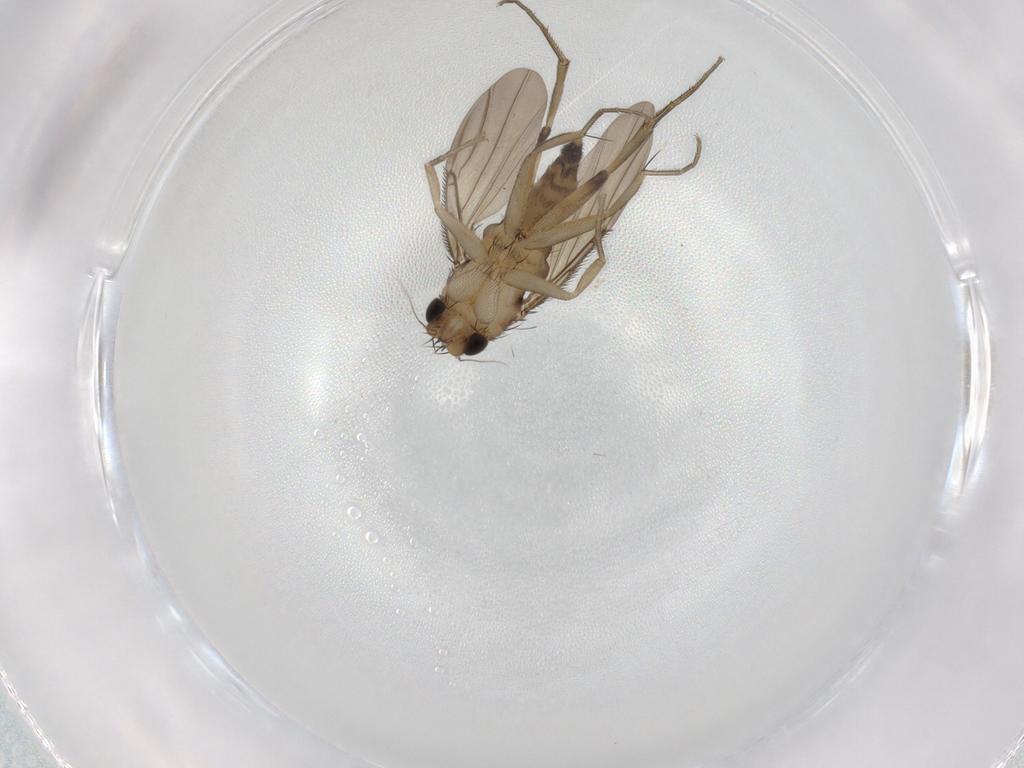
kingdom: Animalia
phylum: Arthropoda
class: Insecta
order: Diptera
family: Phoridae
